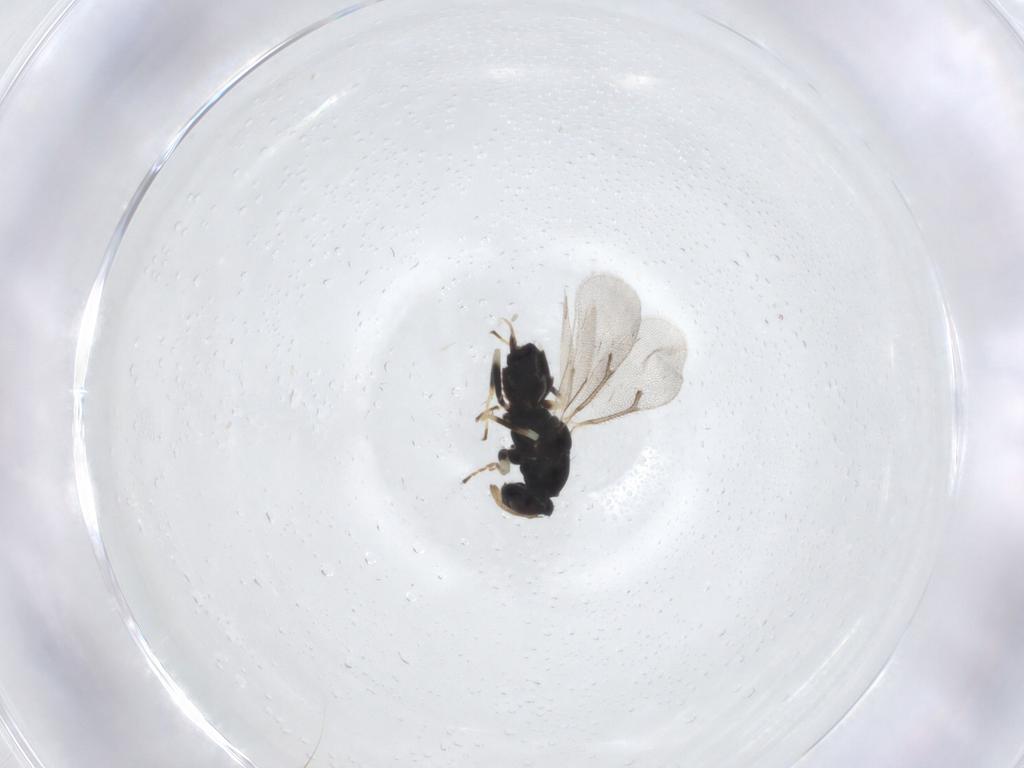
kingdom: Animalia
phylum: Arthropoda
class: Insecta
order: Hymenoptera
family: Eulophidae
